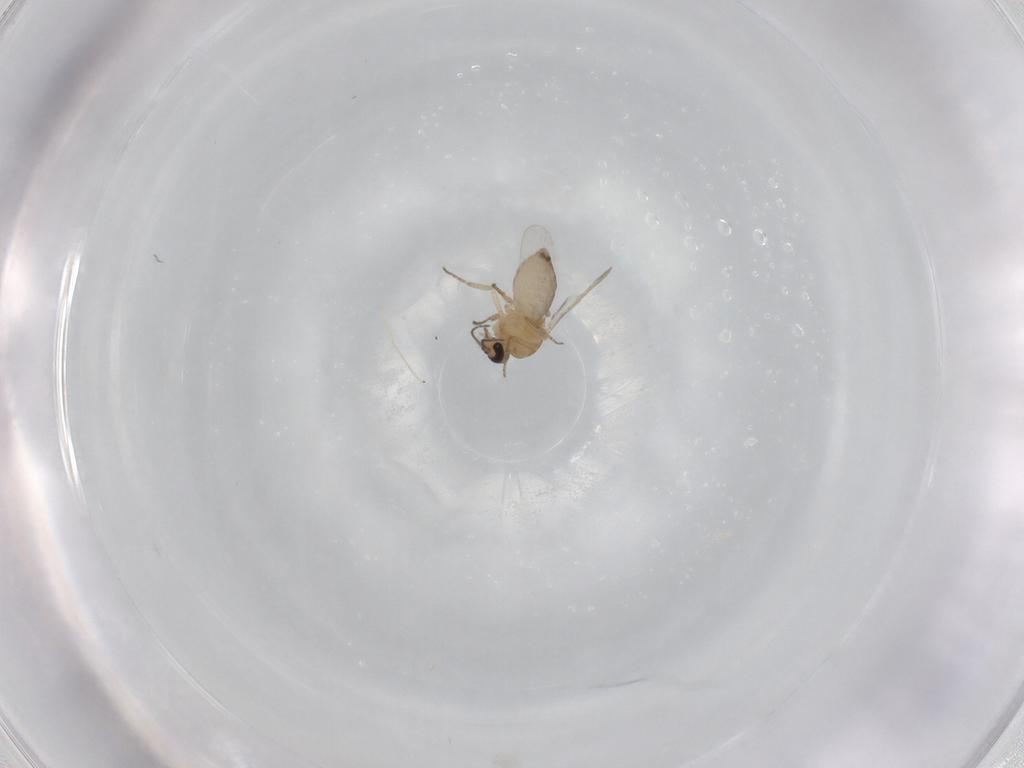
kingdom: Animalia
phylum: Arthropoda
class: Insecta
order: Diptera
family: Ceratopogonidae
